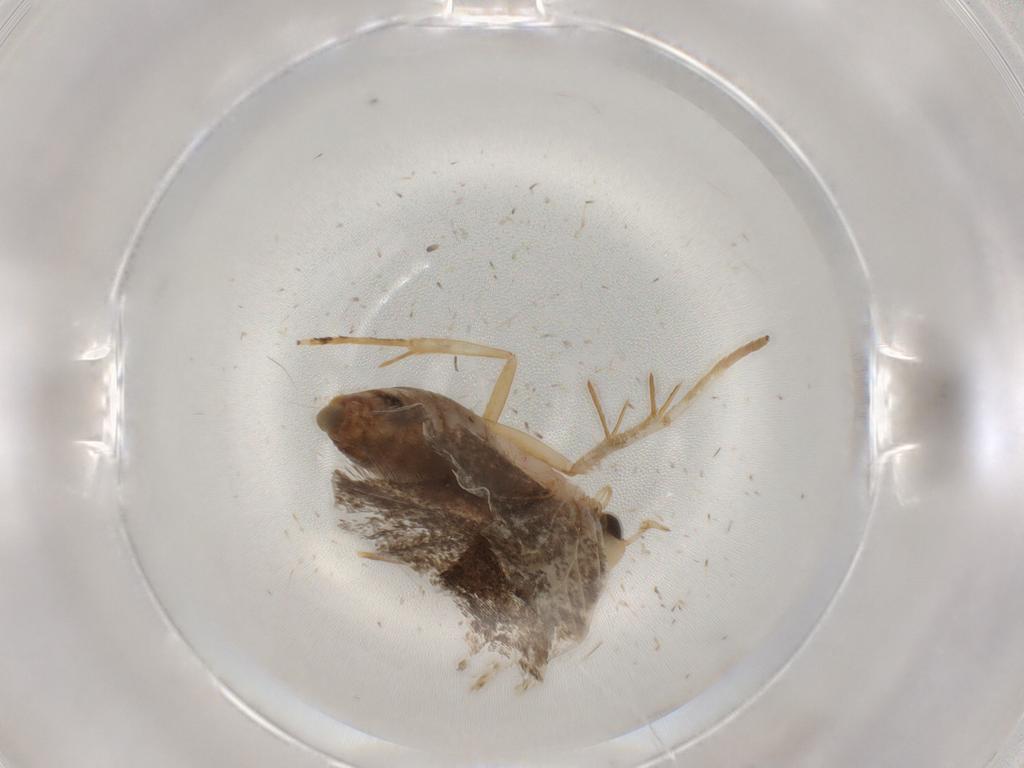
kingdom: Animalia
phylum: Arthropoda
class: Insecta
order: Lepidoptera
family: Autostichidae
